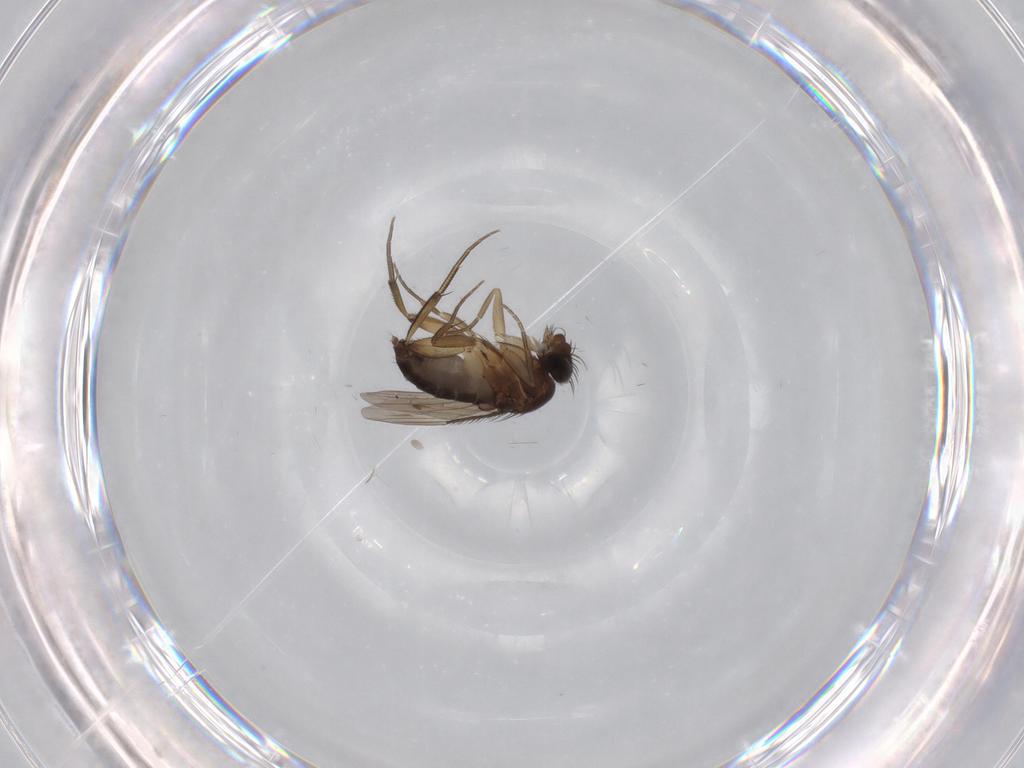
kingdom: Animalia
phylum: Arthropoda
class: Insecta
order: Diptera
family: Cecidomyiidae
